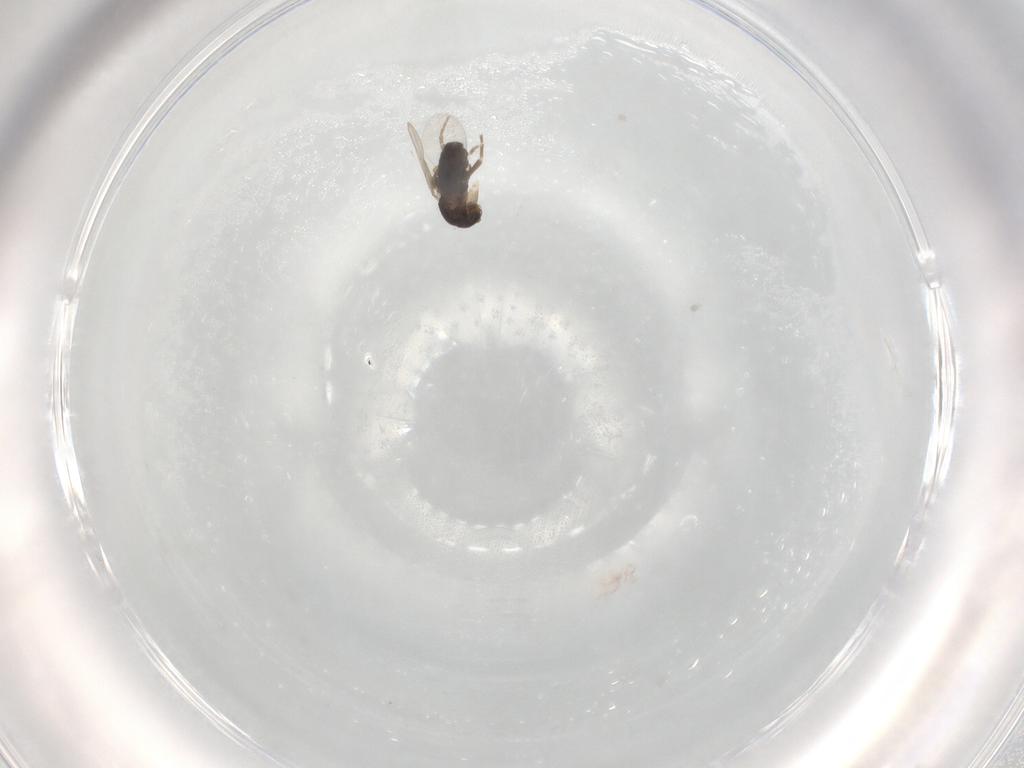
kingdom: Animalia
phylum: Arthropoda
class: Insecta
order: Diptera
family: Phoridae
